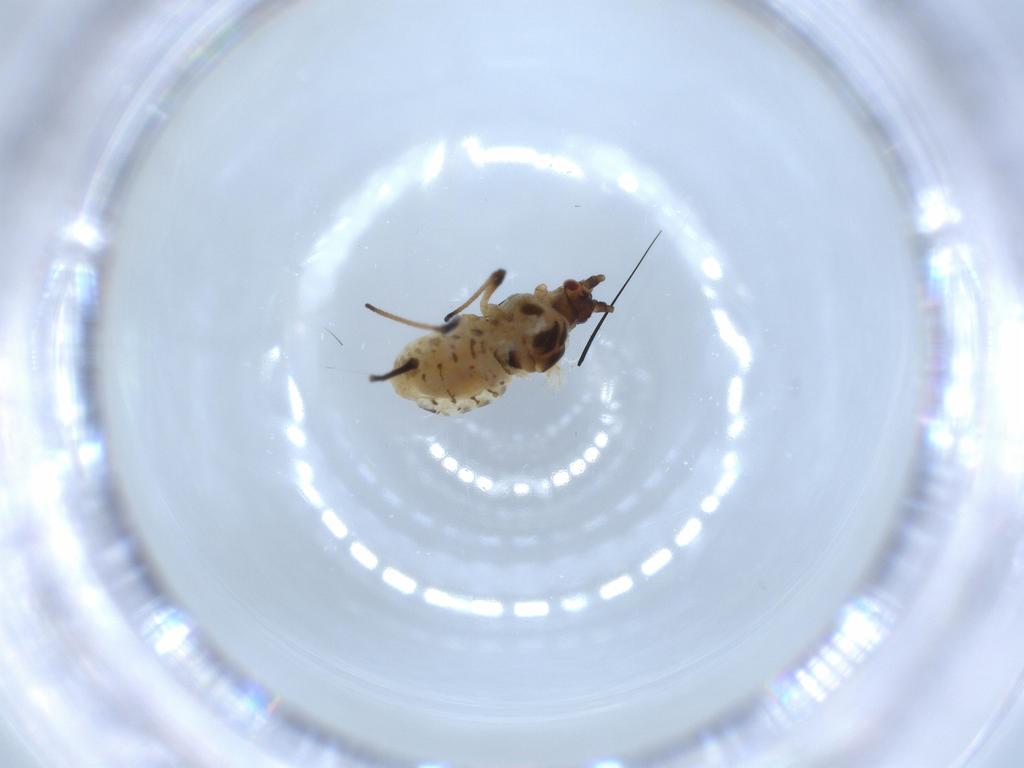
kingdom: Animalia
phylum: Arthropoda
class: Insecta
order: Hemiptera
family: Aphididae
